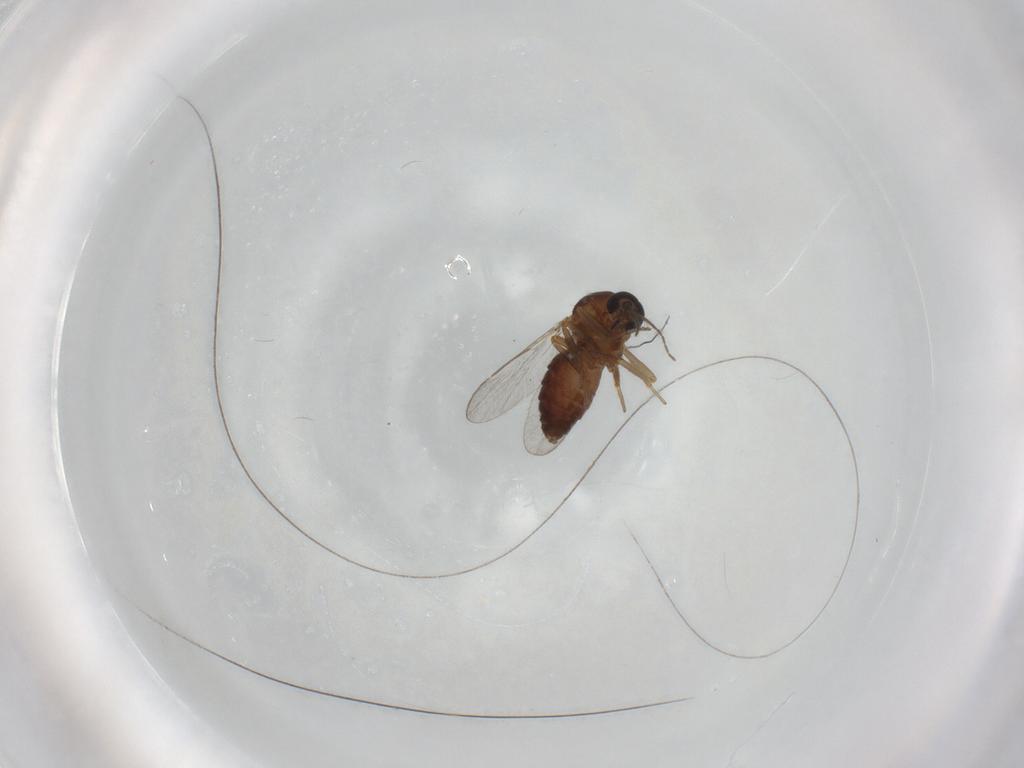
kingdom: Animalia
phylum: Arthropoda
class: Insecta
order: Diptera
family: Ceratopogonidae
